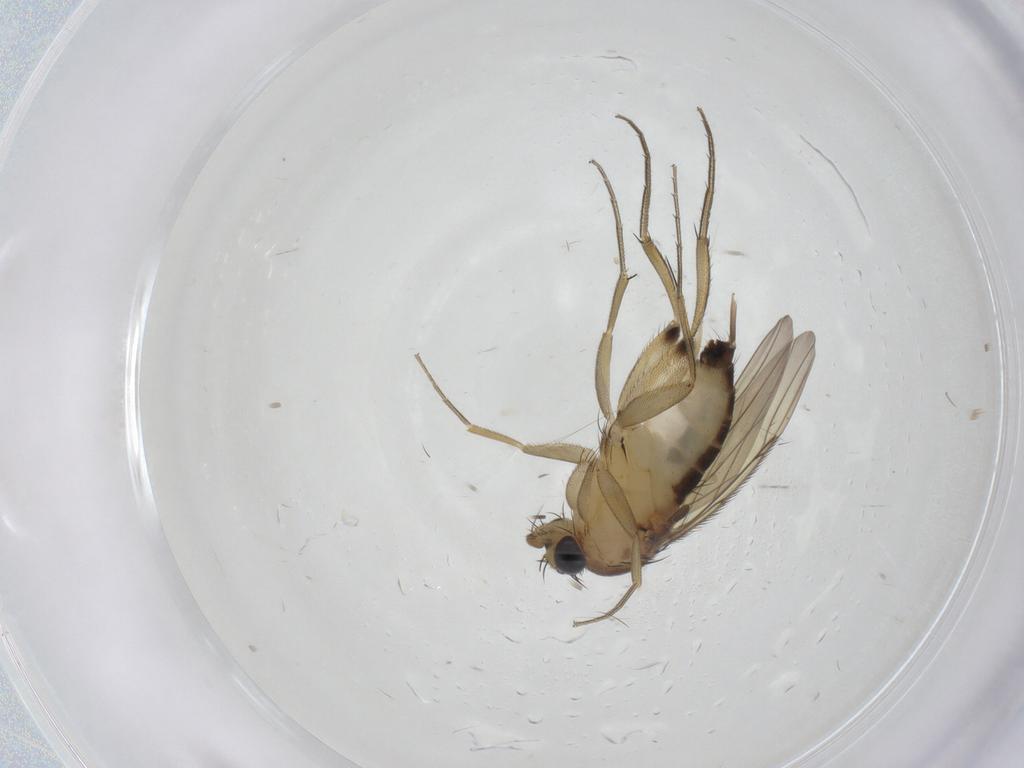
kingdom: Animalia
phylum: Arthropoda
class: Insecta
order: Diptera
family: Phoridae
